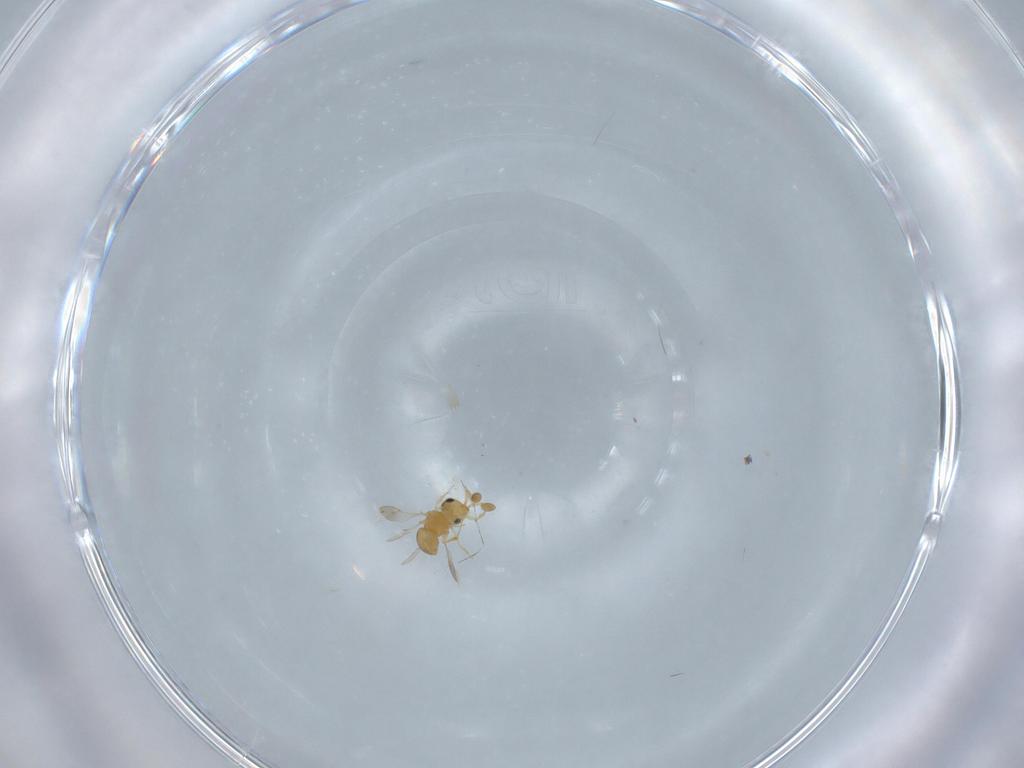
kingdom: Animalia
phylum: Arthropoda
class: Insecta
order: Hymenoptera
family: Scelionidae
